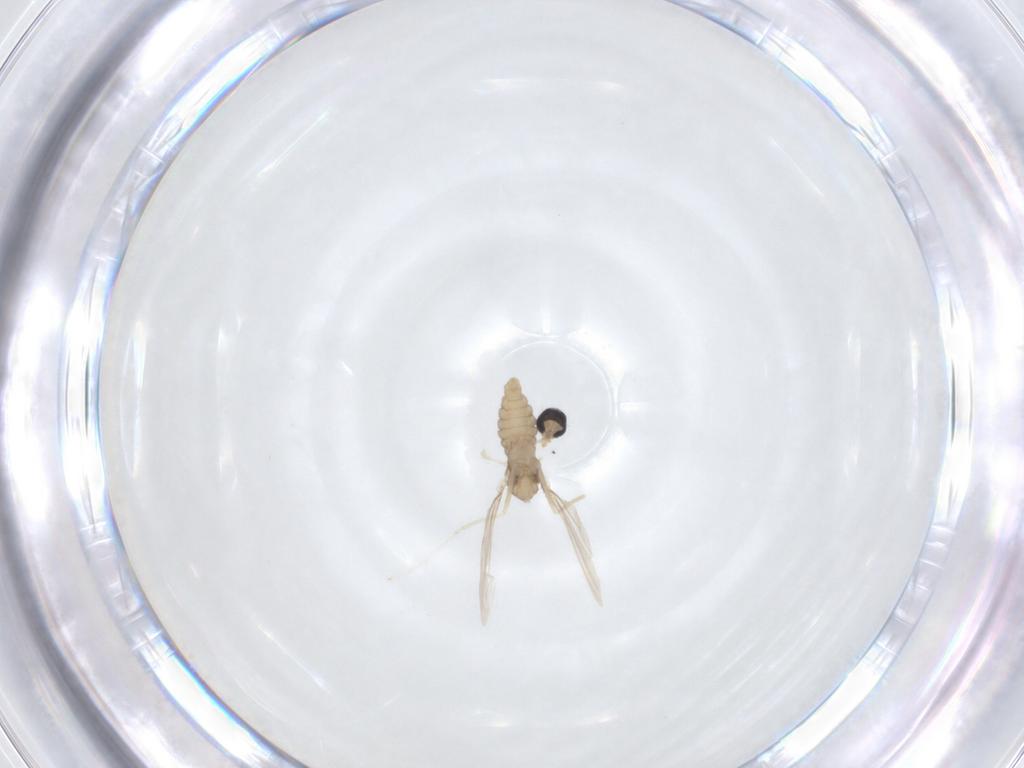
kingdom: Animalia
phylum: Arthropoda
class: Insecta
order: Diptera
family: Cecidomyiidae
